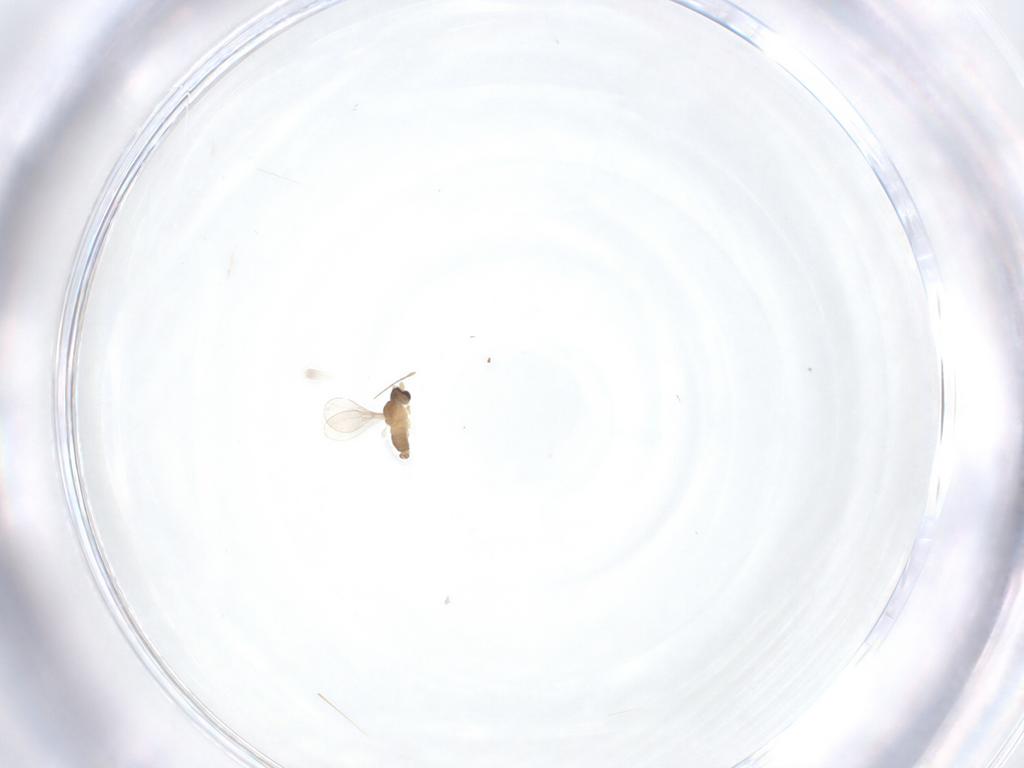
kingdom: Animalia
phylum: Arthropoda
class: Insecta
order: Diptera
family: Cecidomyiidae
